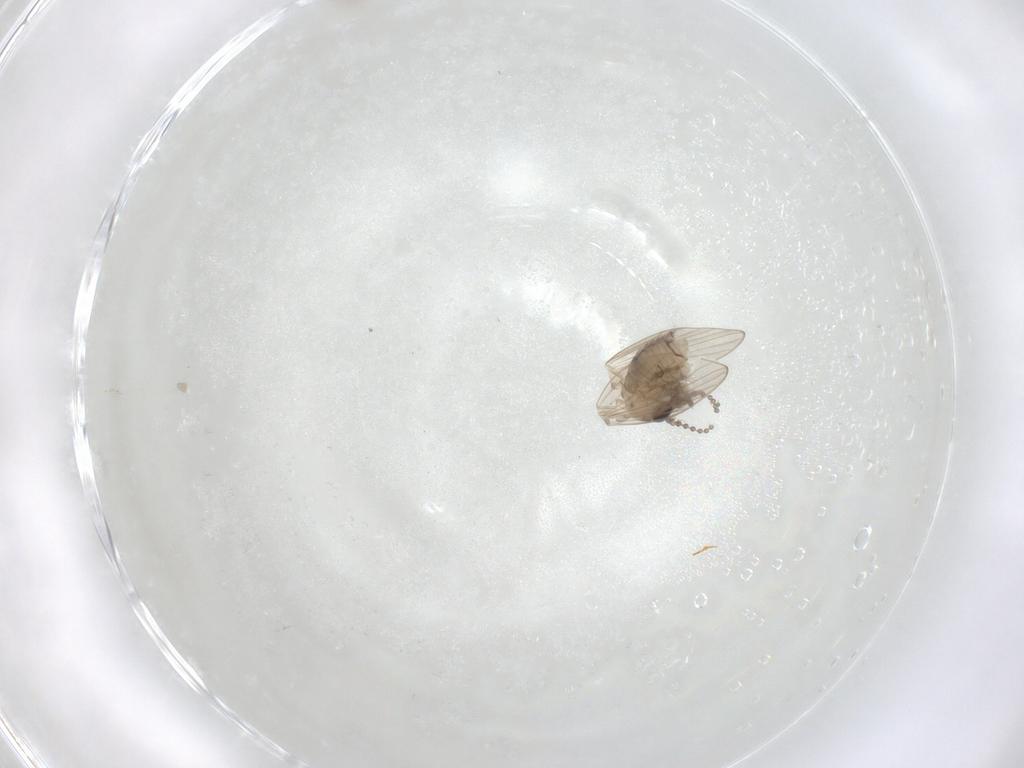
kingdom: Animalia
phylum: Arthropoda
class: Insecta
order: Diptera
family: Psychodidae
